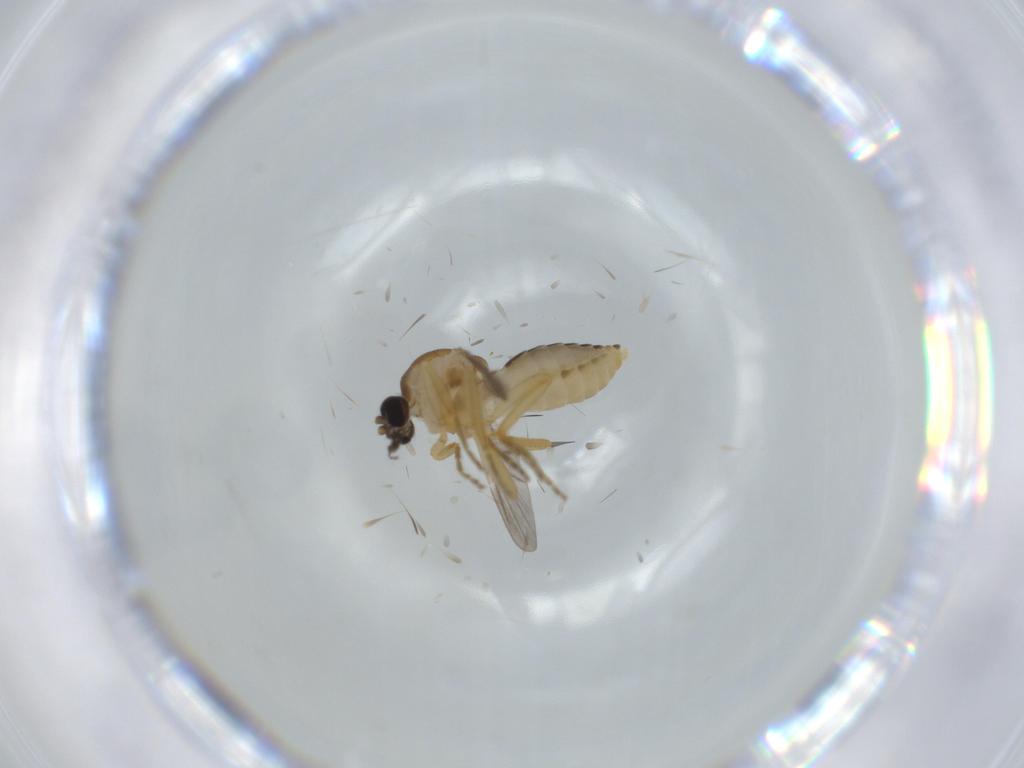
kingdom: Animalia
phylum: Arthropoda
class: Insecta
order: Diptera
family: Ceratopogonidae
